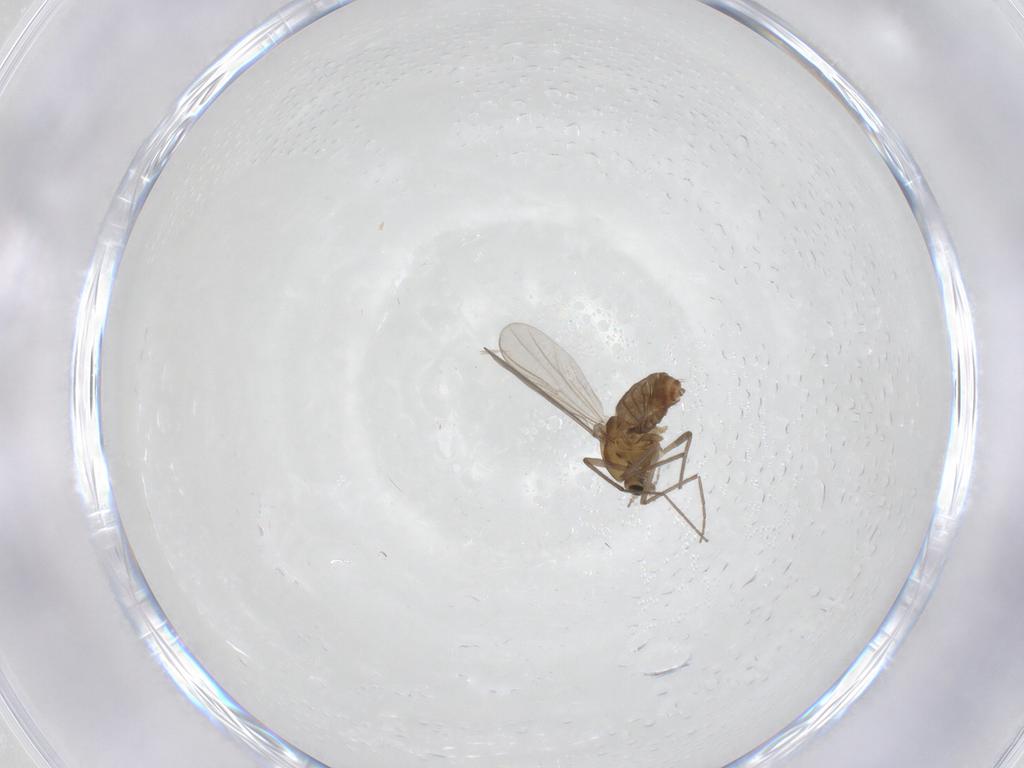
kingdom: Animalia
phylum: Arthropoda
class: Insecta
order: Diptera
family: Chironomidae
